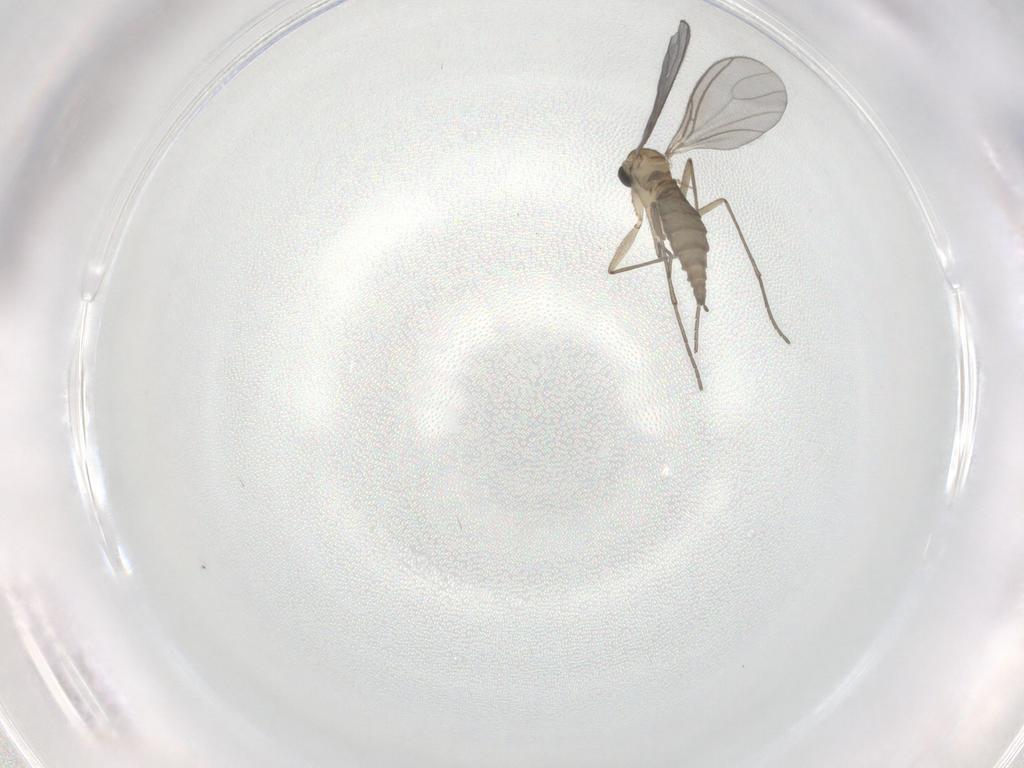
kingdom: Animalia
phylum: Arthropoda
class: Insecta
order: Diptera
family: Sciaridae
